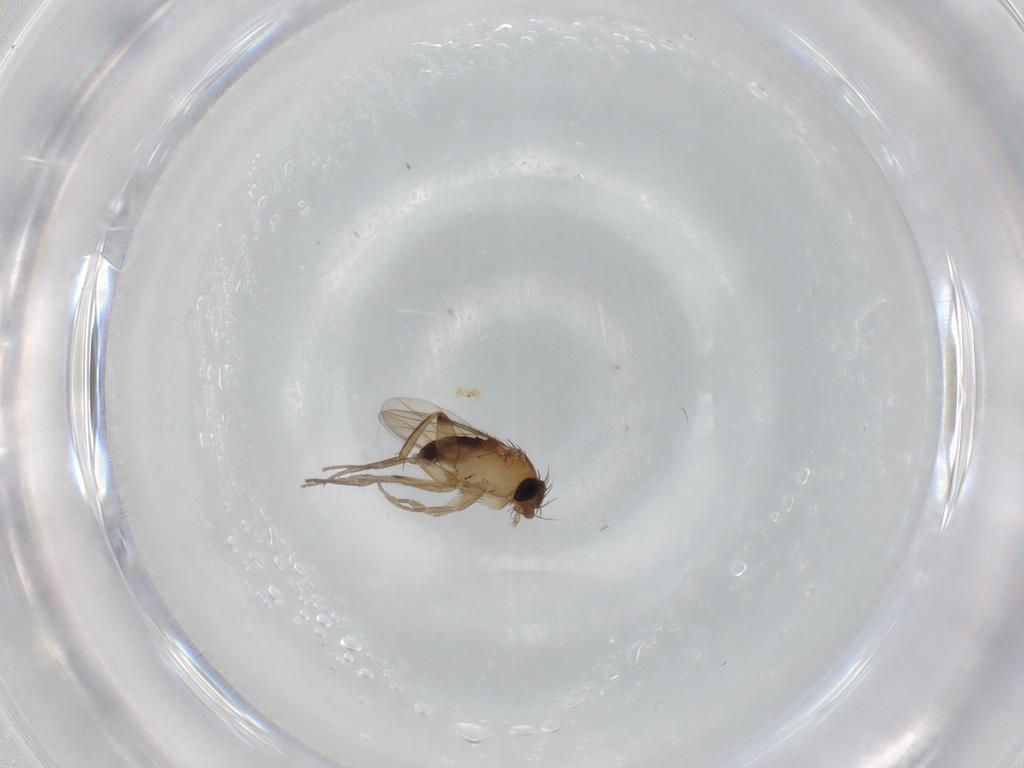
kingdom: Animalia
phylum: Arthropoda
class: Insecta
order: Diptera
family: Phoridae
